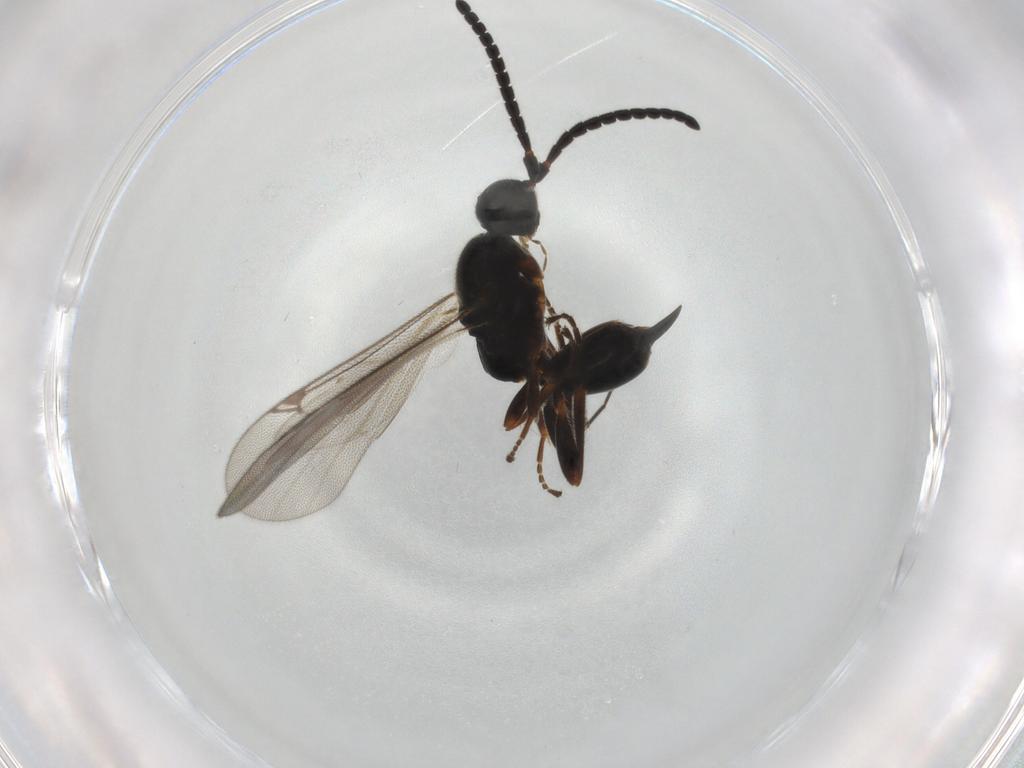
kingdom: Animalia
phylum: Arthropoda
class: Insecta
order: Hymenoptera
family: Proctotrupidae
